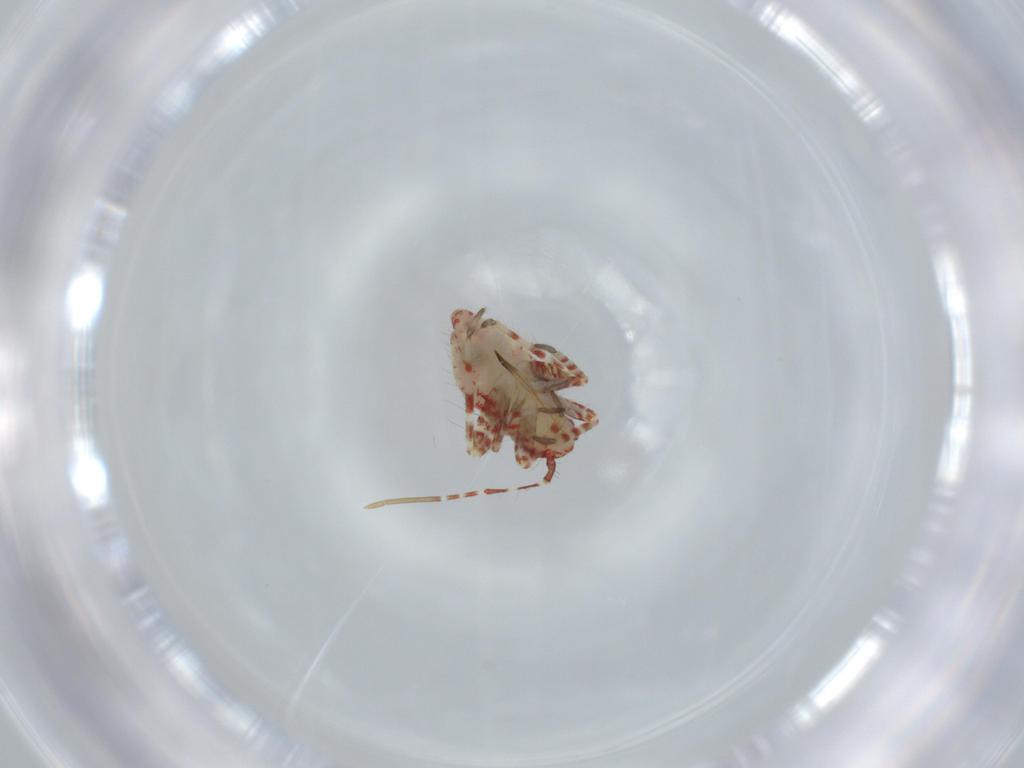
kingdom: Animalia
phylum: Arthropoda
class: Insecta
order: Hemiptera
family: Miridae
